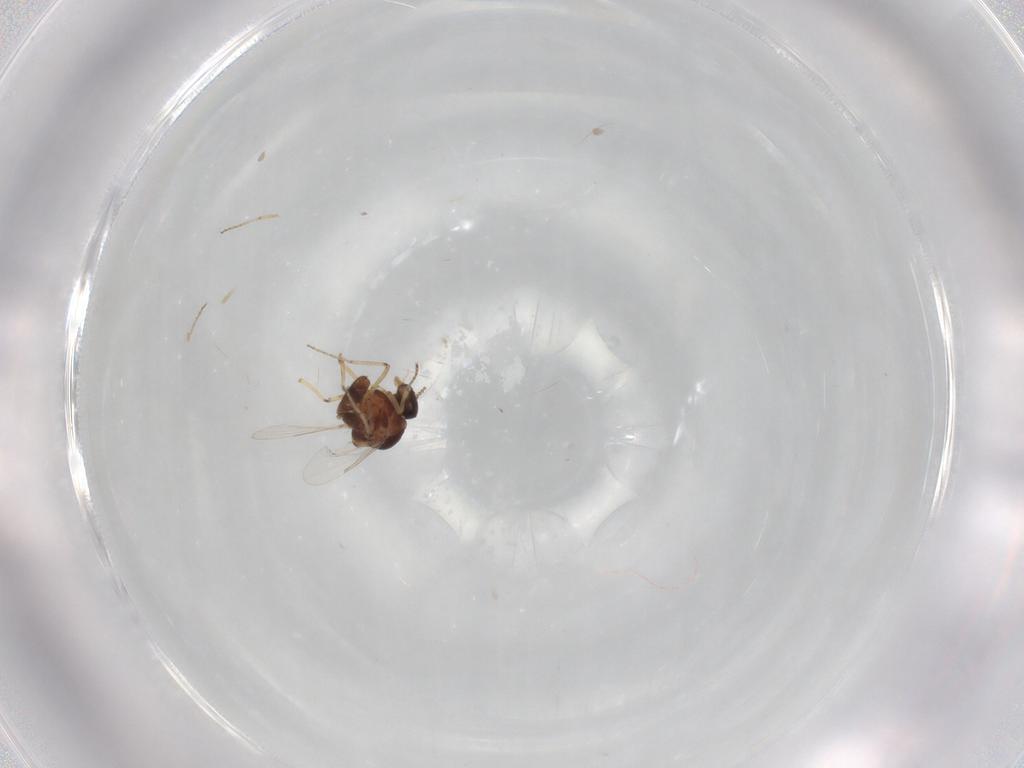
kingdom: Animalia
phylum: Arthropoda
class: Insecta
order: Diptera
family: Ceratopogonidae
